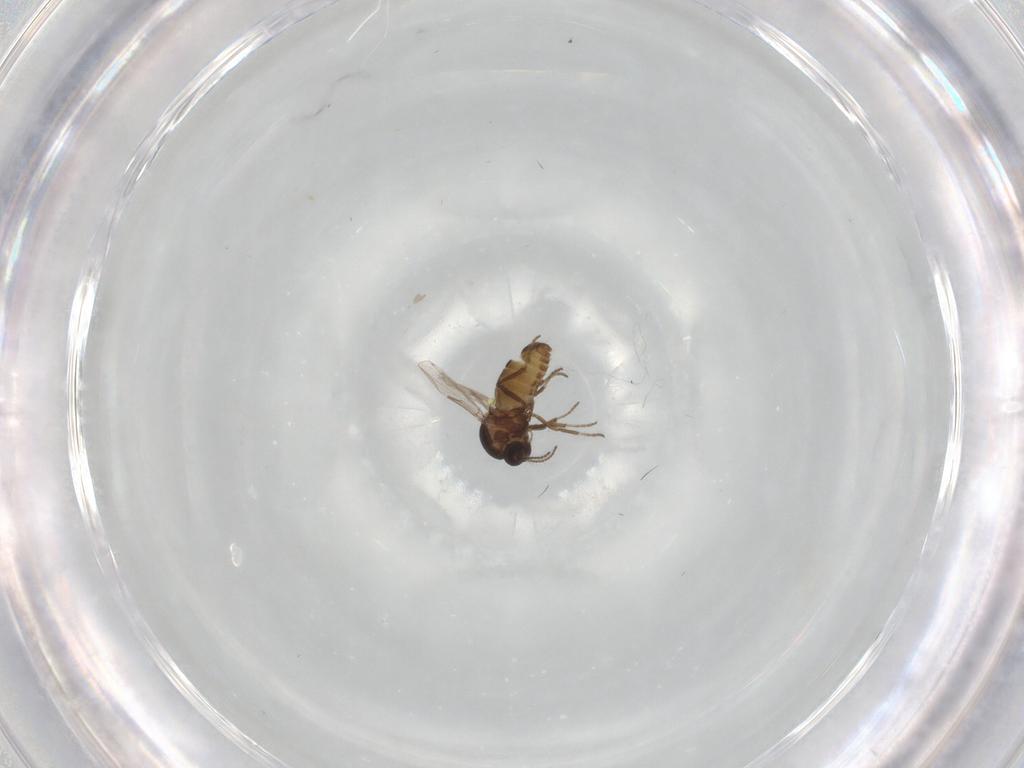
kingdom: Animalia
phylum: Arthropoda
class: Insecta
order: Diptera
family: Ceratopogonidae
